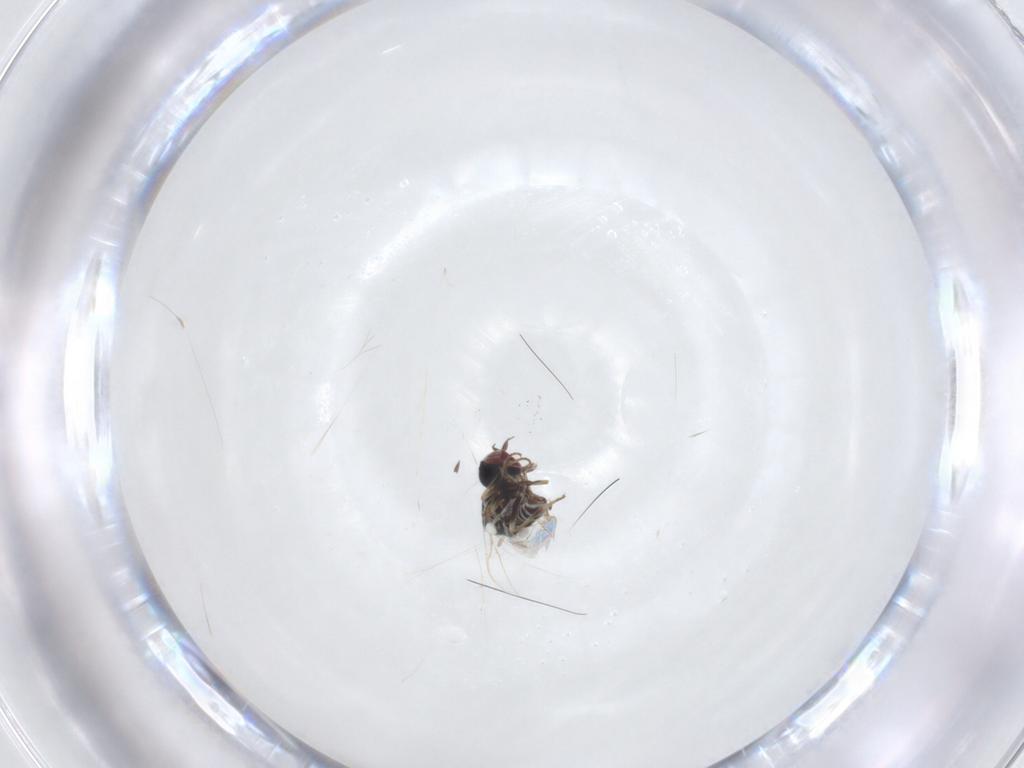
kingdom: Animalia
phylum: Arthropoda
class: Insecta
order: Diptera
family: Mythicomyiidae
